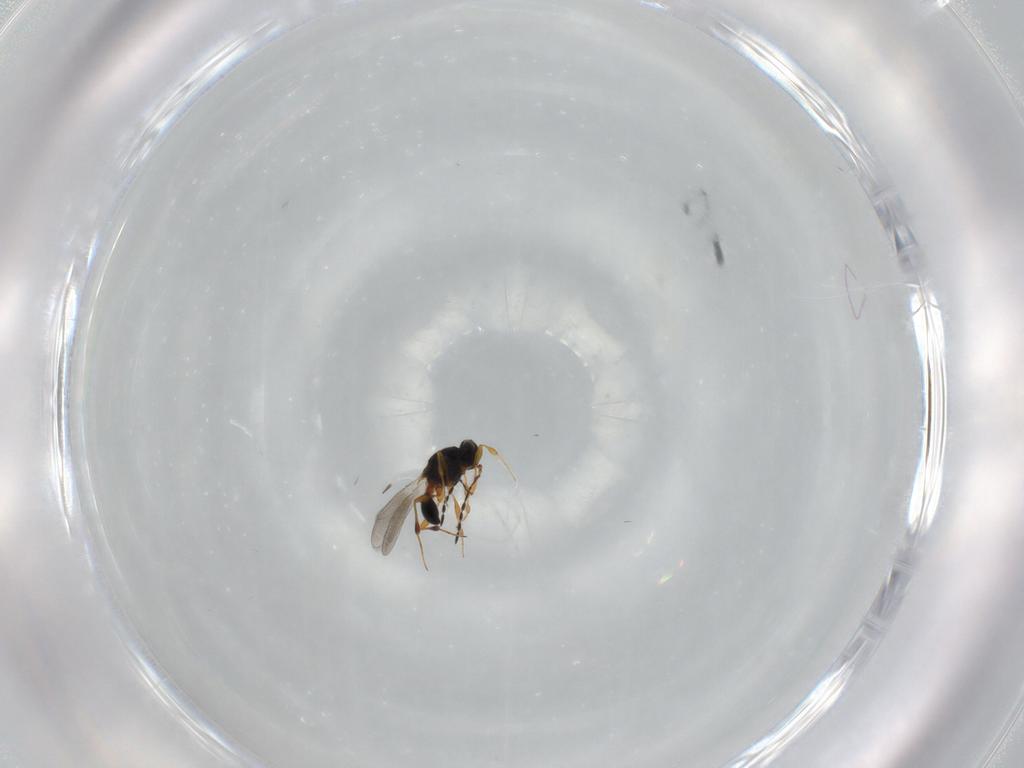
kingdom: Animalia
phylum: Arthropoda
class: Insecta
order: Hymenoptera
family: Platygastridae
